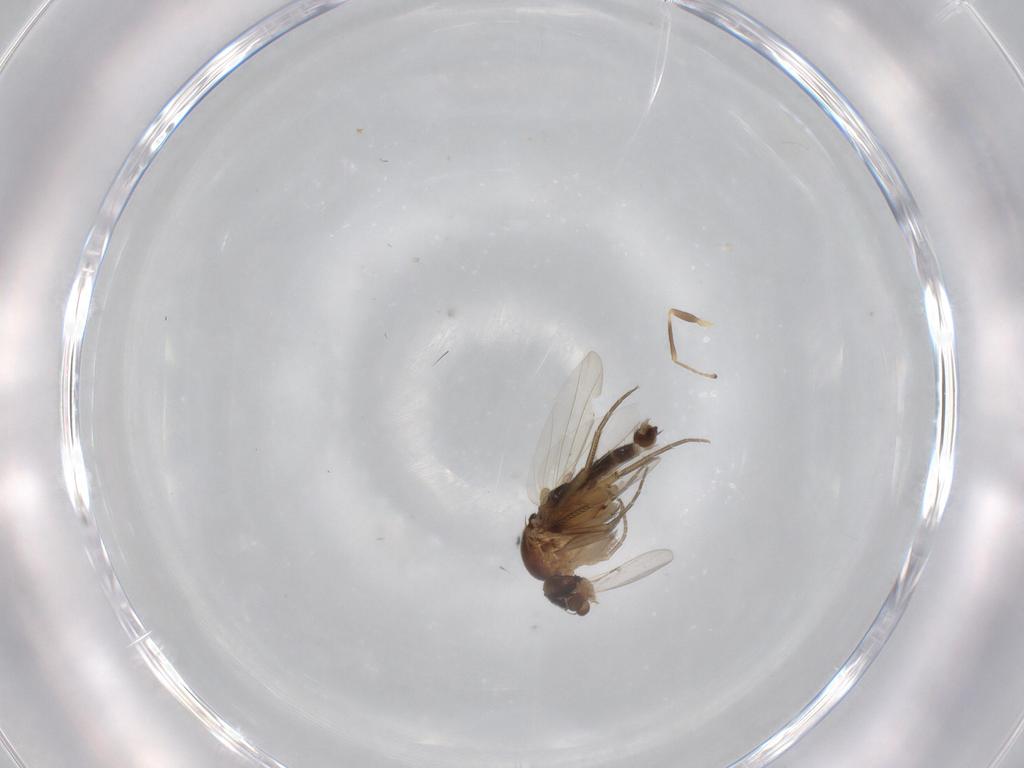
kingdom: Animalia
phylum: Arthropoda
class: Insecta
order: Diptera
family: Phoridae
